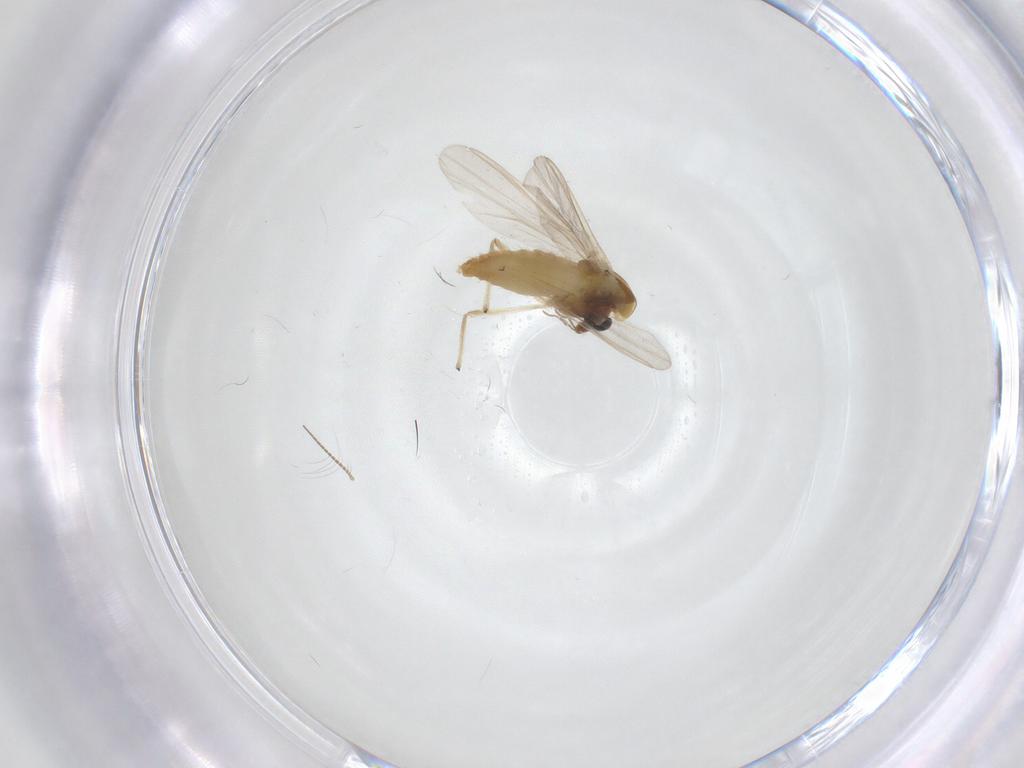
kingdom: Animalia
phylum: Arthropoda
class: Insecta
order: Diptera
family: Chironomidae
